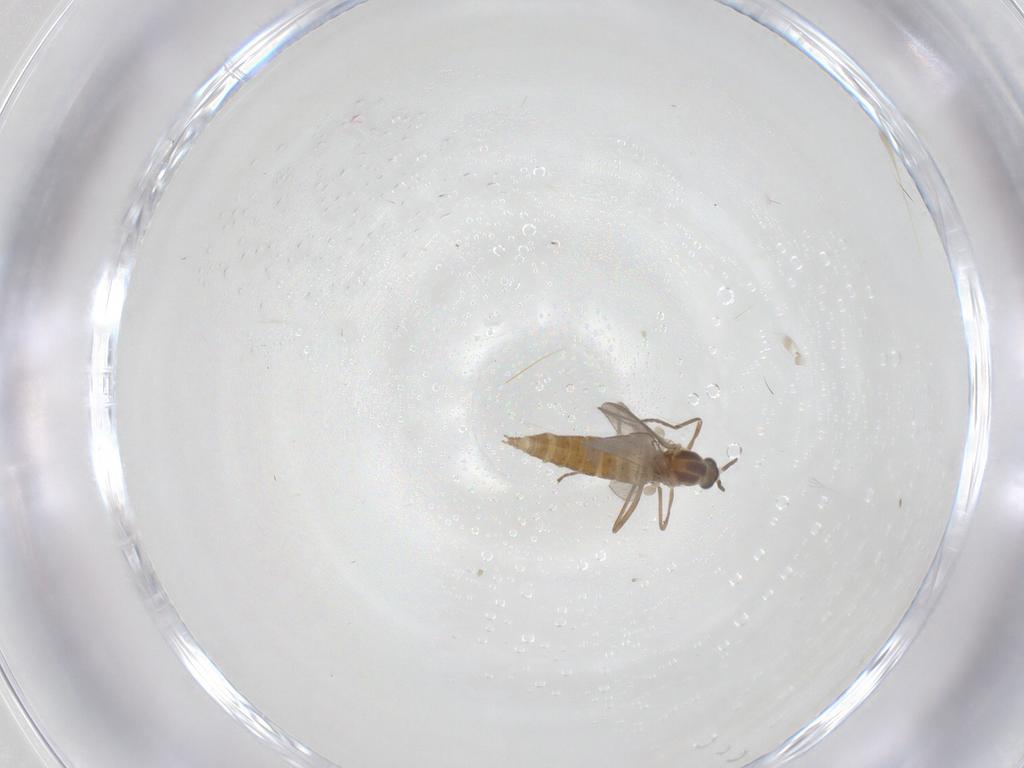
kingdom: Animalia
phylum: Arthropoda
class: Insecta
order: Diptera
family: Cecidomyiidae
